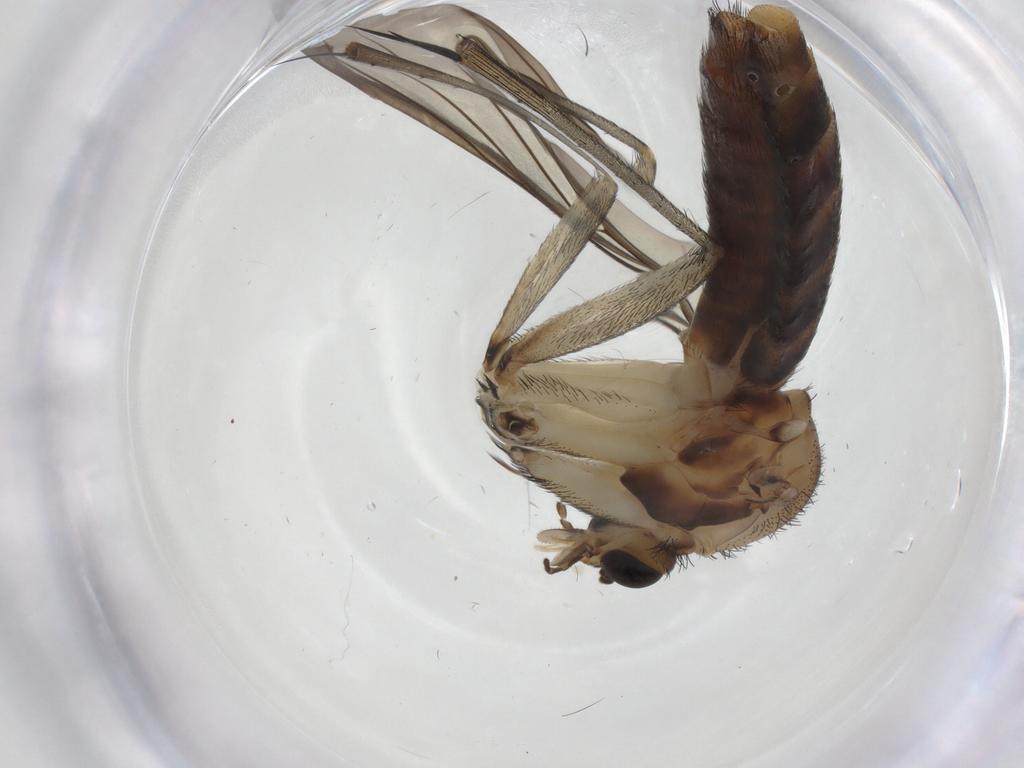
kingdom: Animalia
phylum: Arthropoda
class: Insecta
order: Diptera
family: Keroplatidae
